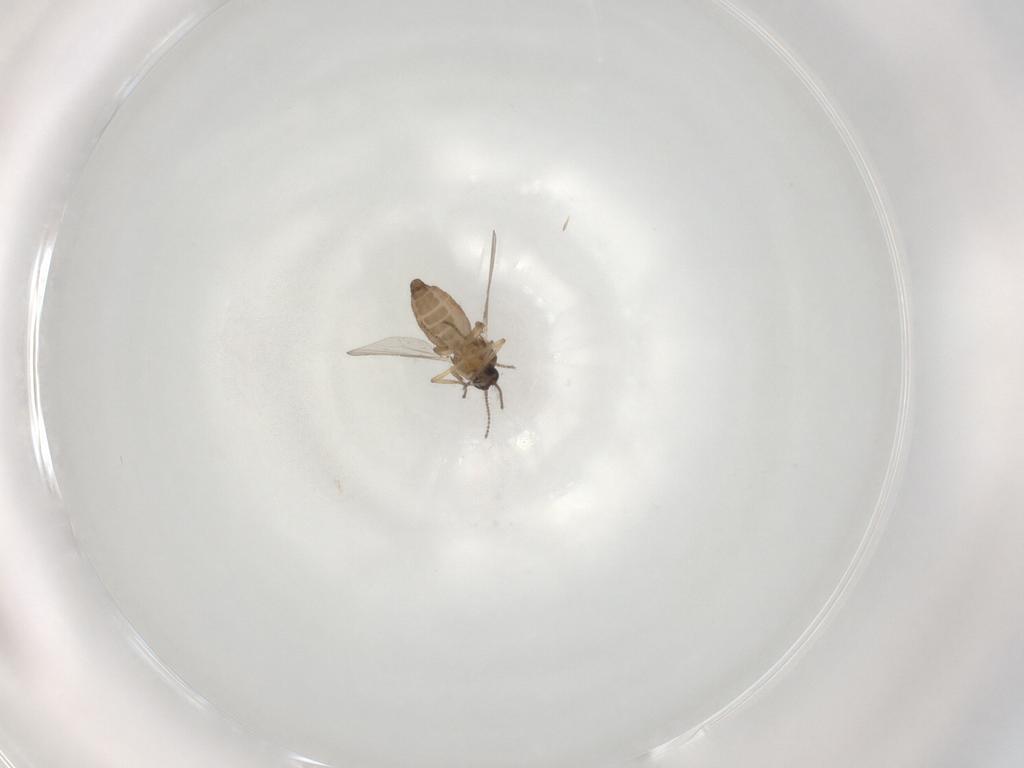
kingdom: Animalia
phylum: Arthropoda
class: Insecta
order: Diptera
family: Ceratopogonidae
